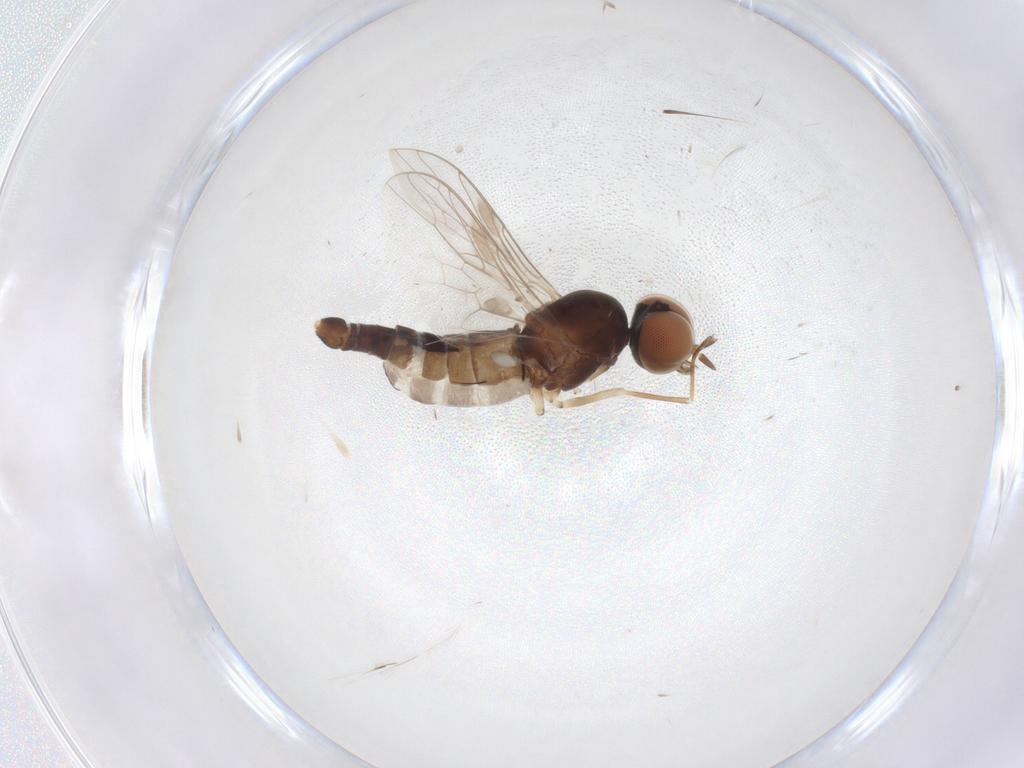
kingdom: Animalia
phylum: Arthropoda
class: Insecta
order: Diptera
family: Scenopinidae
